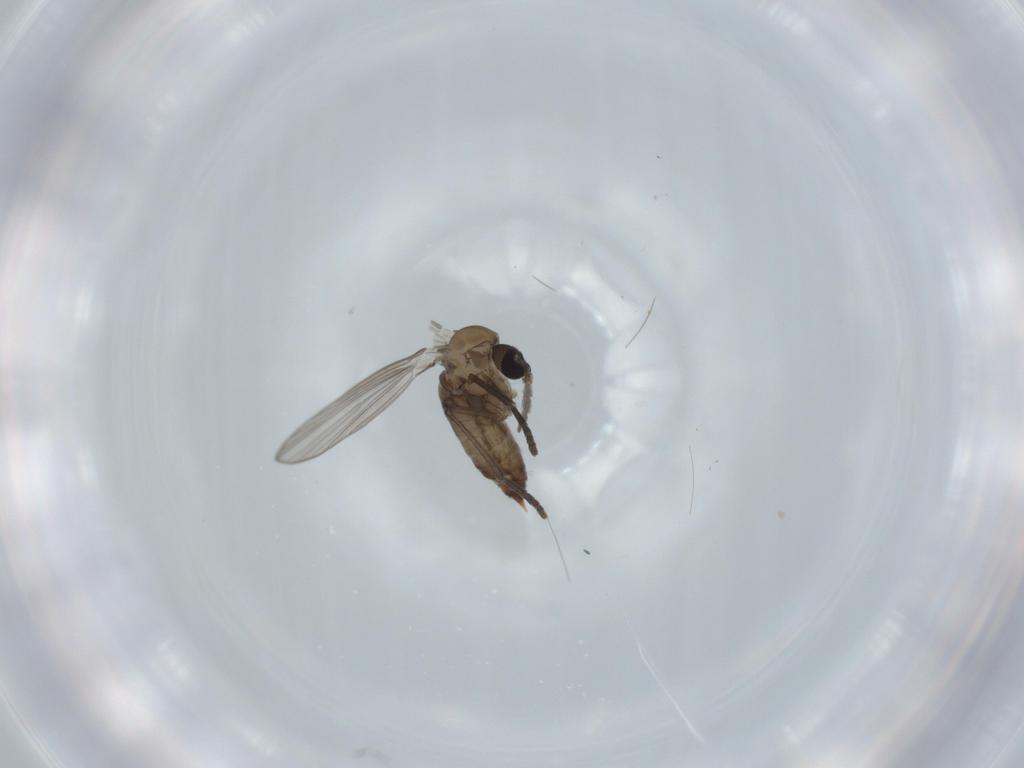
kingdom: Animalia
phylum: Arthropoda
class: Insecta
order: Diptera
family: Psychodidae
